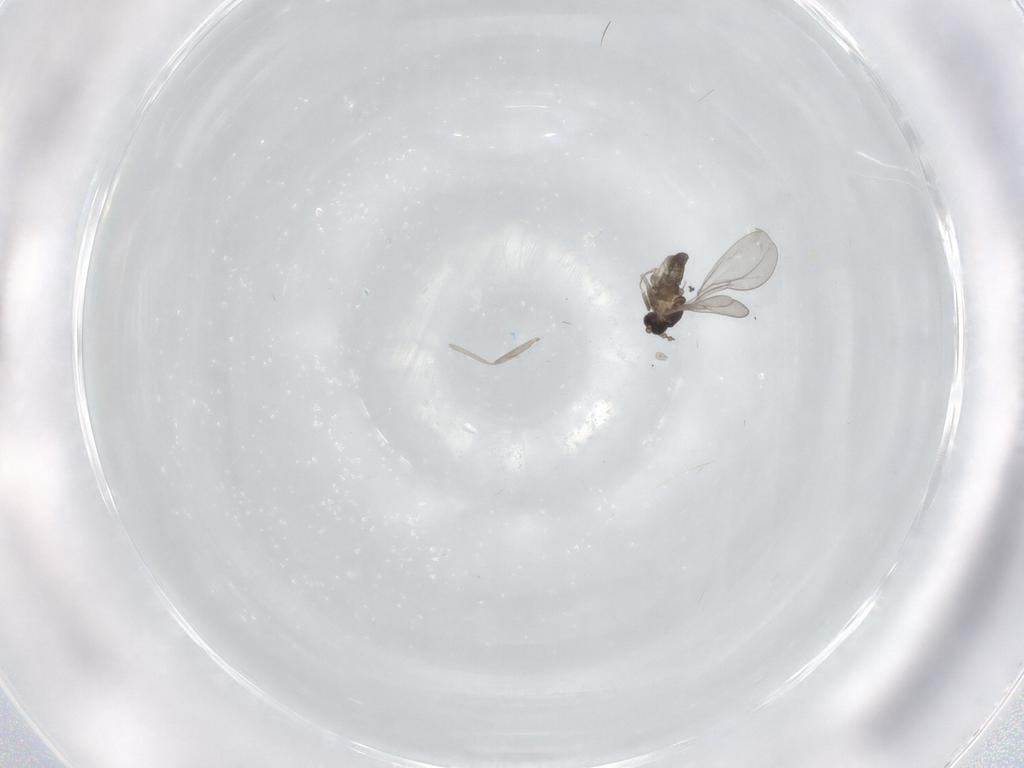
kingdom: Animalia
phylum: Arthropoda
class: Insecta
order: Diptera
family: Cecidomyiidae
